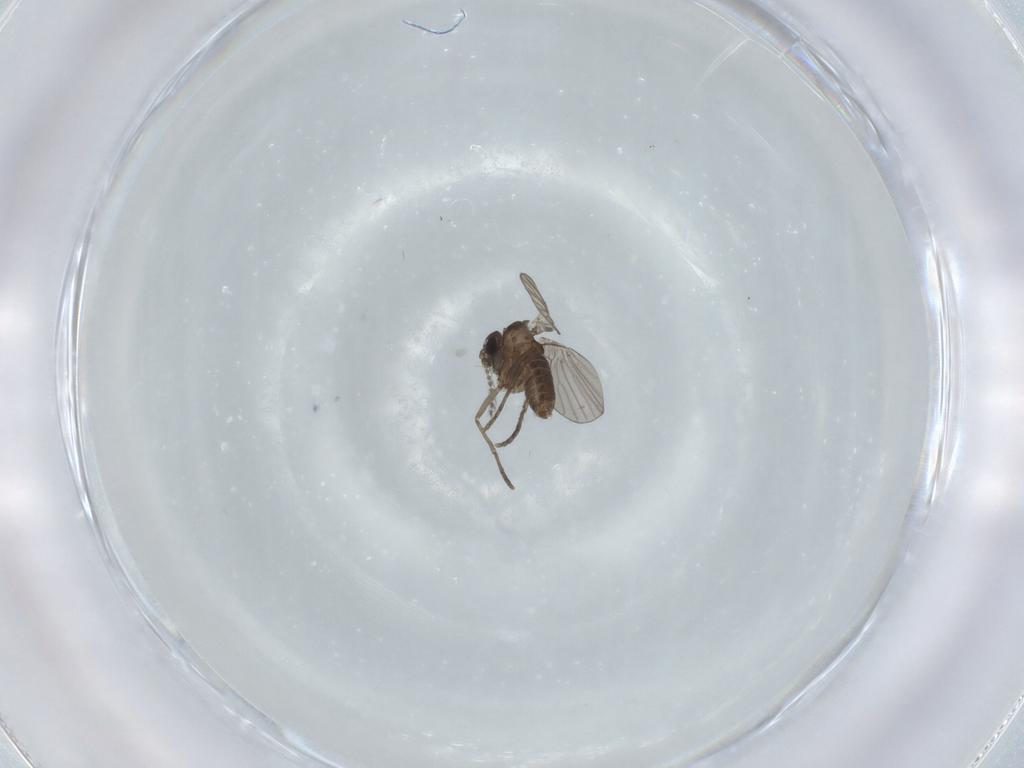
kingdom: Animalia
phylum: Arthropoda
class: Insecta
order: Diptera
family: Phoridae
